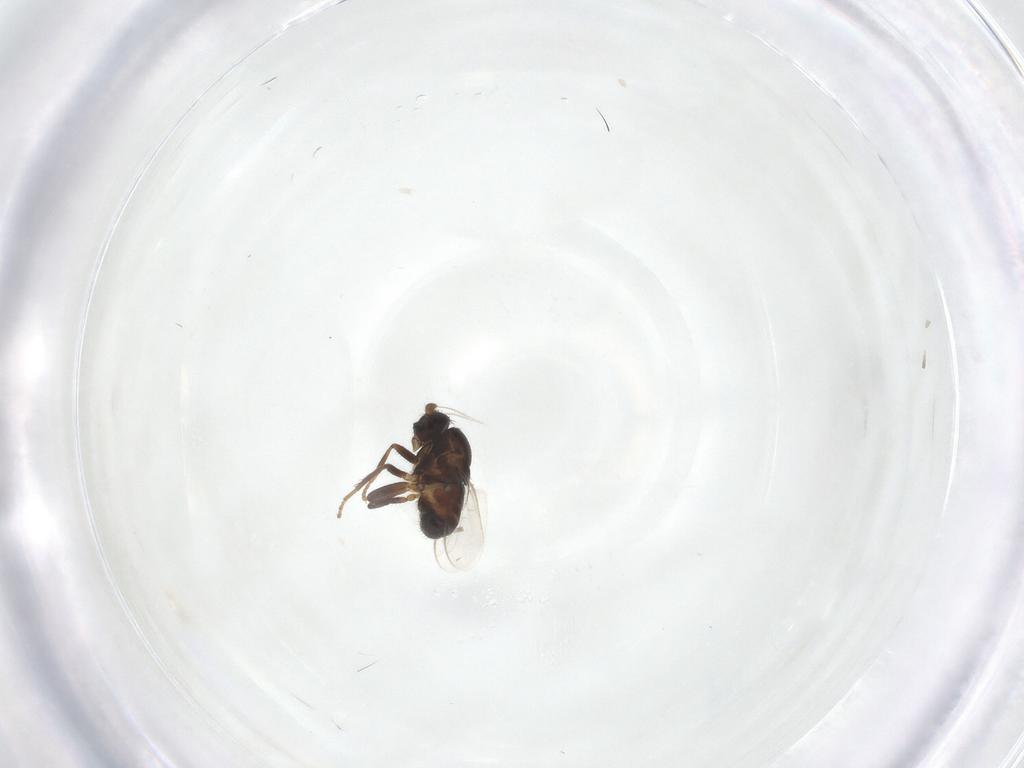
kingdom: Animalia
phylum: Arthropoda
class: Insecta
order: Diptera
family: Sphaeroceridae
